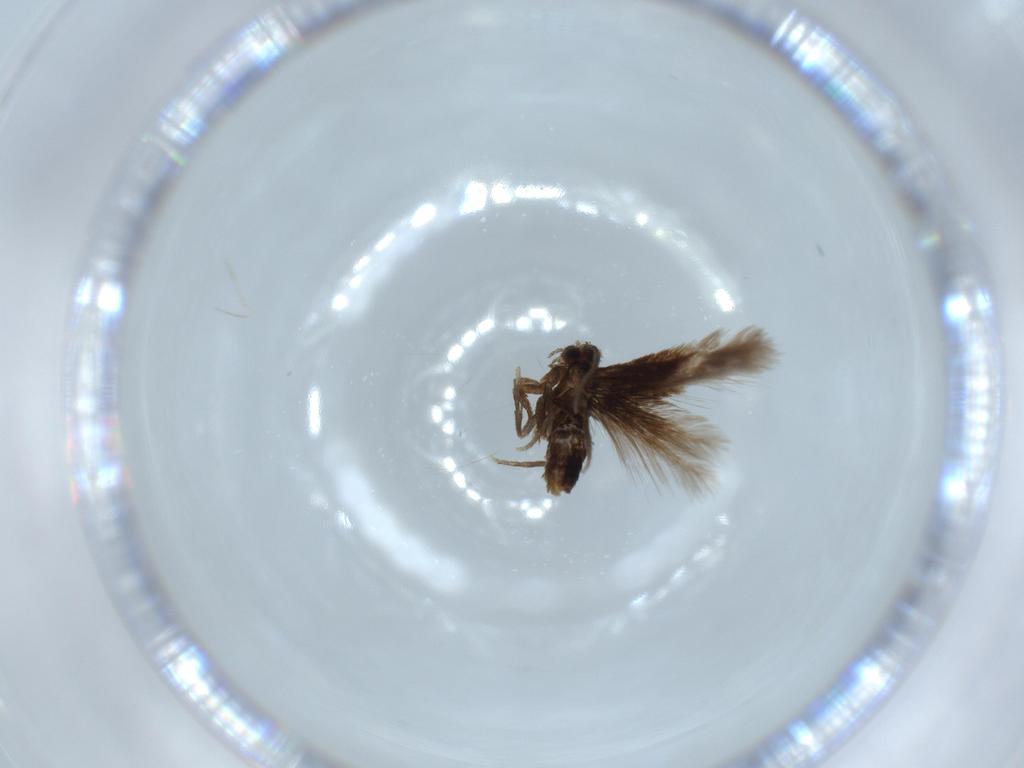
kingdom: Animalia
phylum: Arthropoda
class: Insecta
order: Lepidoptera
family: Nepticulidae
